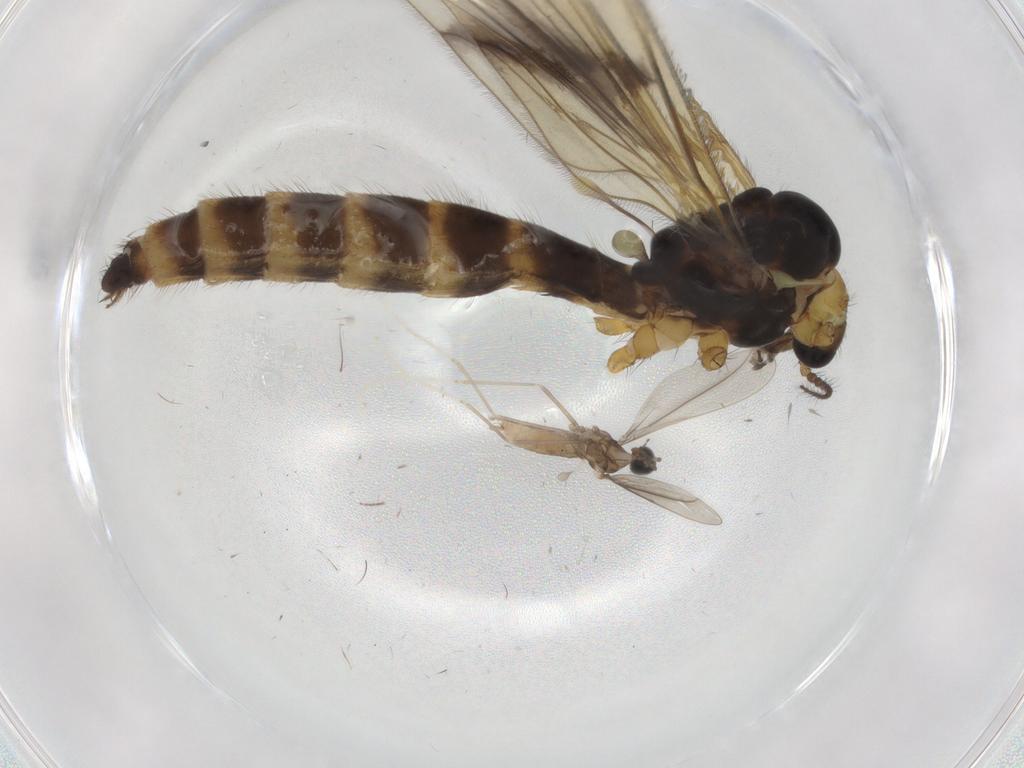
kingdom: Animalia
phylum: Arthropoda
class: Insecta
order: Diptera
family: Limoniidae
